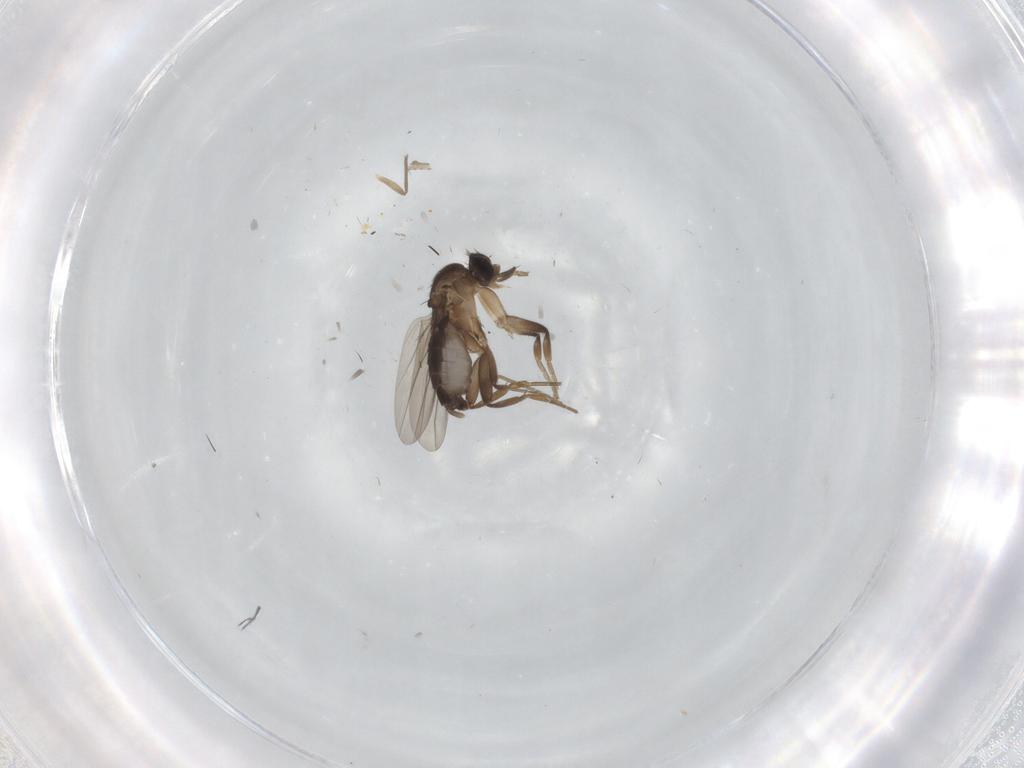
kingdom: Animalia
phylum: Arthropoda
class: Insecta
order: Diptera
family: Phoridae
